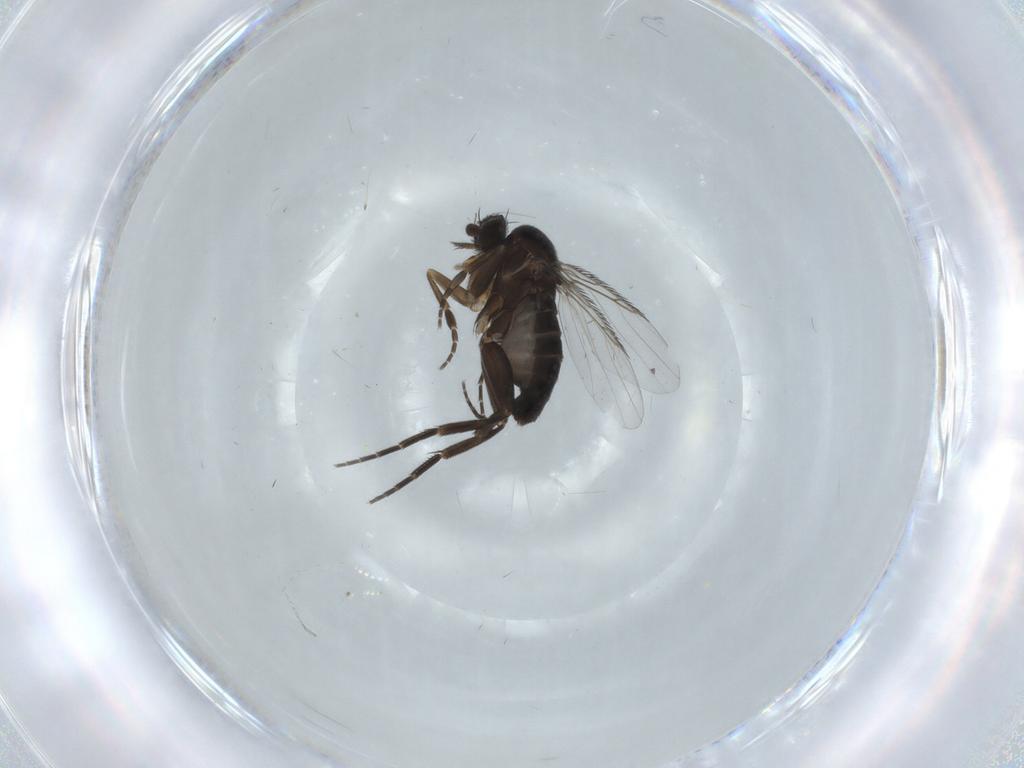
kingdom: Animalia
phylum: Arthropoda
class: Insecta
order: Diptera
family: Phoridae
